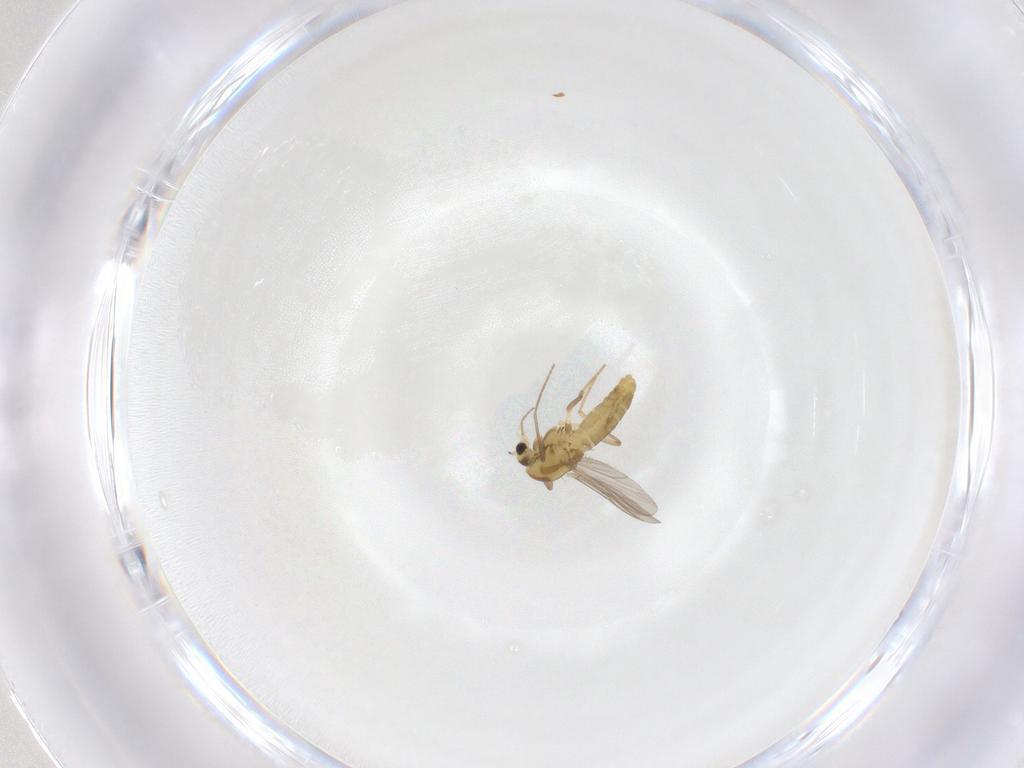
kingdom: Animalia
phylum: Arthropoda
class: Insecta
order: Diptera
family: Chironomidae
